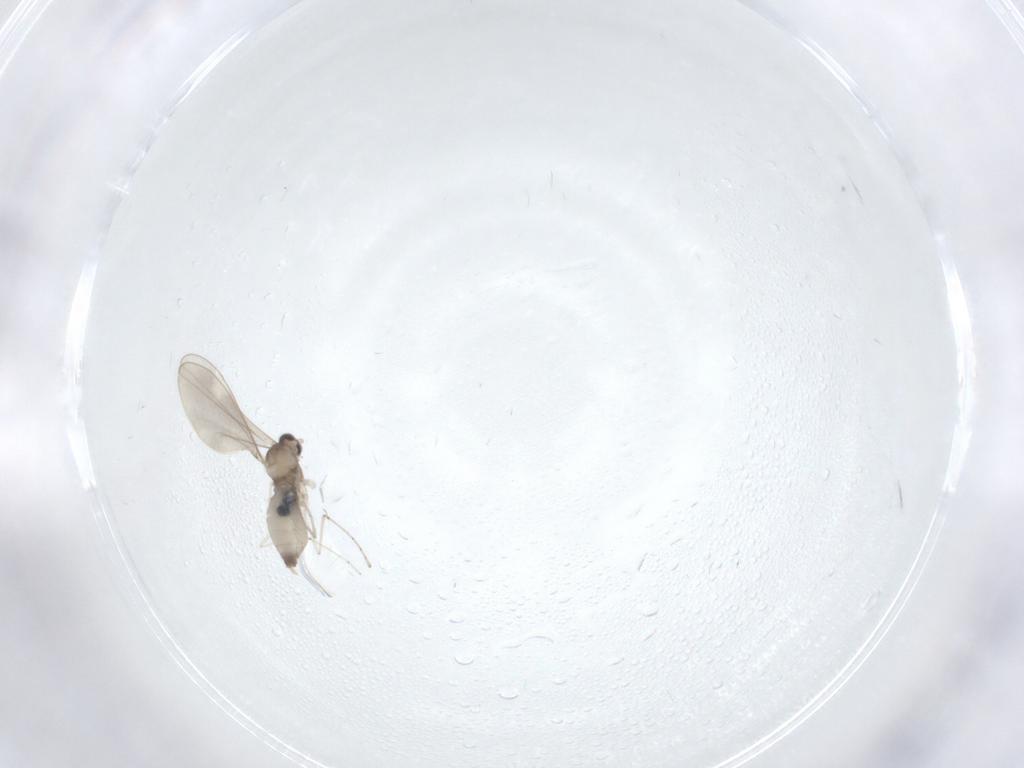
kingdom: Animalia
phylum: Arthropoda
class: Insecta
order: Diptera
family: Cecidomyiidae
